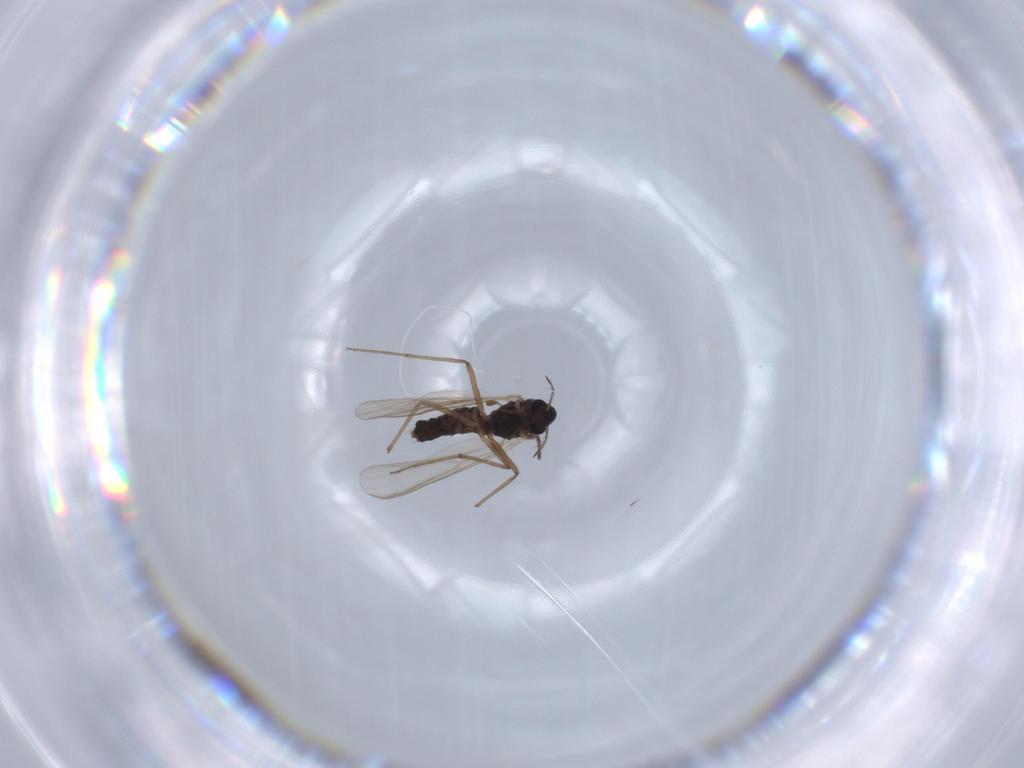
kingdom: Animalia
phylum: Arthropoda
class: Insecta
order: Diptera
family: Chironomidae
